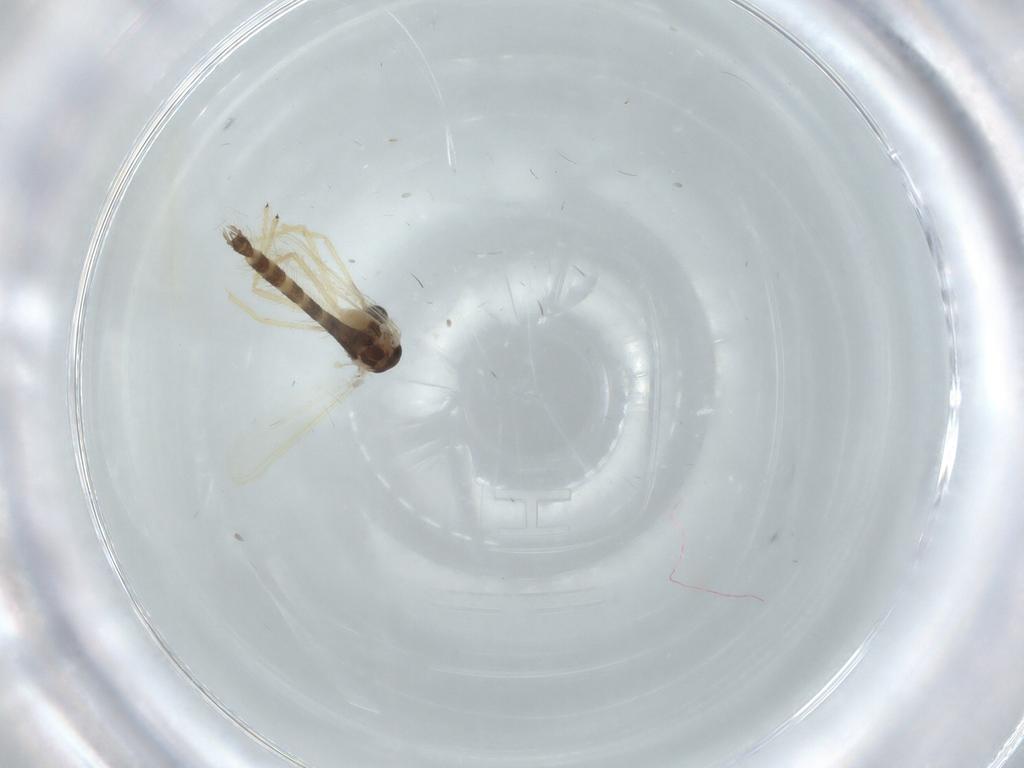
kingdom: Animalia
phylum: Arthropoda
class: Insecta
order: Diptera
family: Chironomidae
